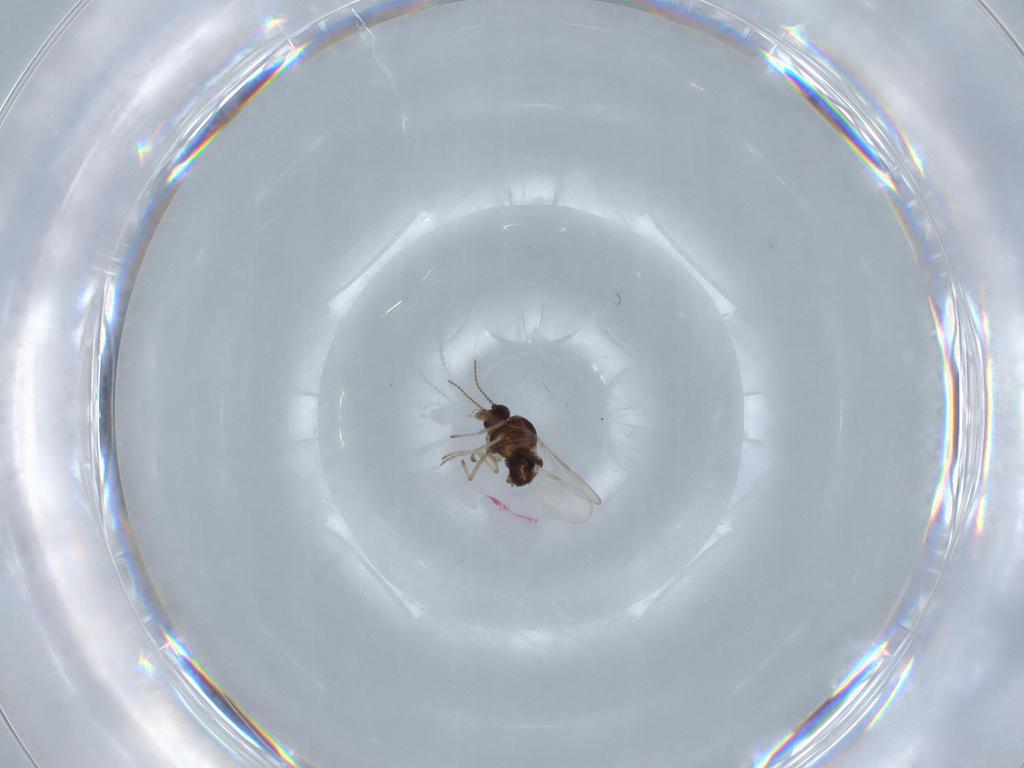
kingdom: Animalia
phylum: Arthropoda
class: Insecta
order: Diptera
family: Ceratopogonidae
